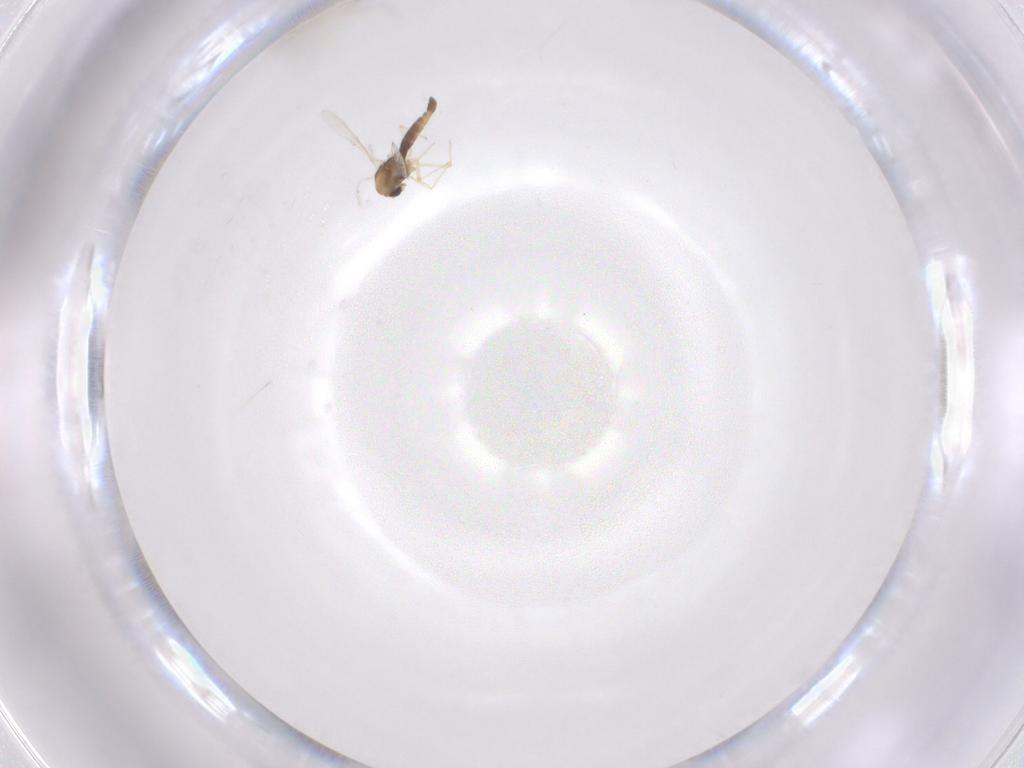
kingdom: Animalia
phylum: Arthropoda
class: Insecta
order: Diptera
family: Chironomidae
